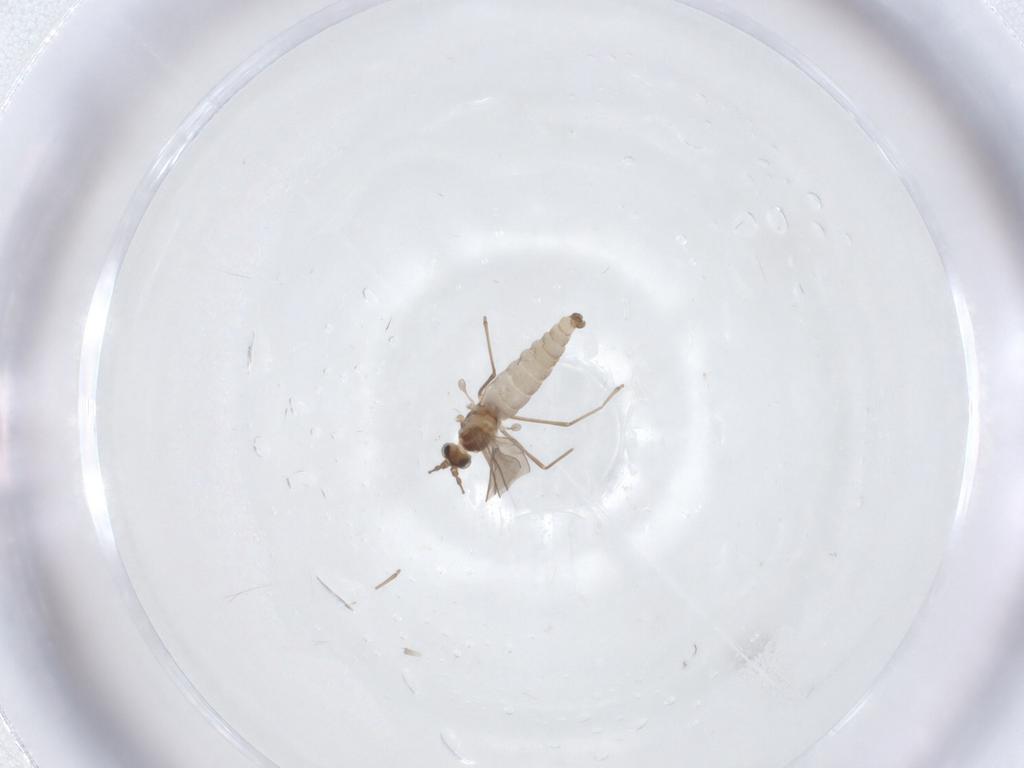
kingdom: Animalia
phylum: Arthropoda
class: Insecta
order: Diptera
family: Cecidomyiidae
